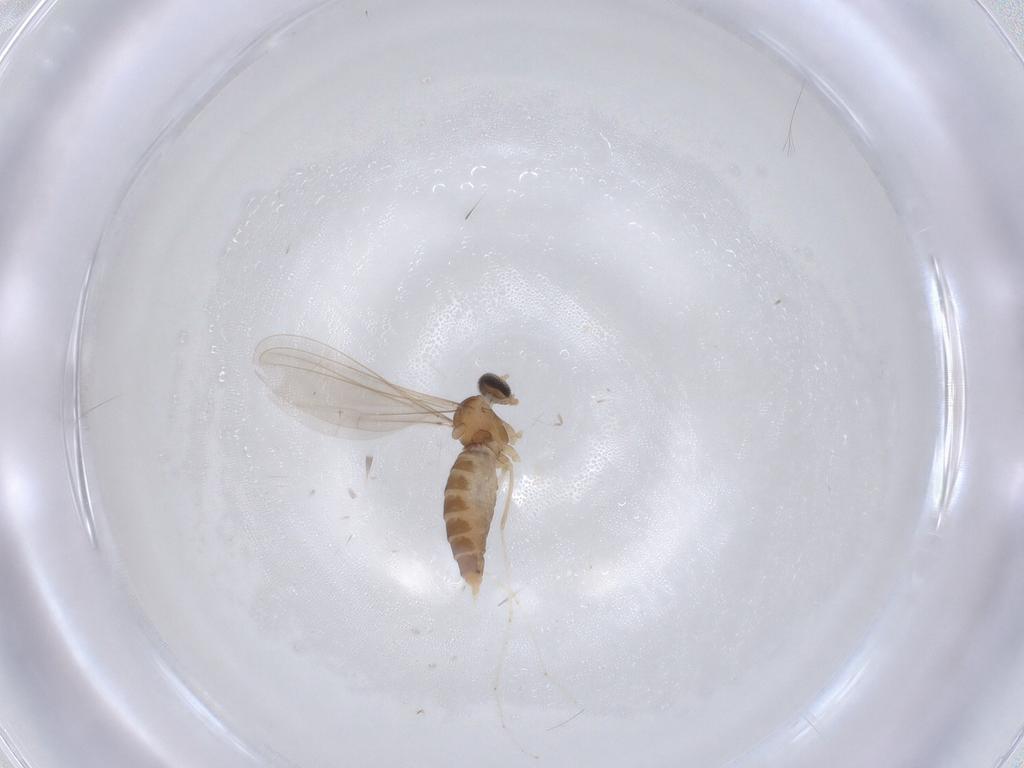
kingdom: Animalia
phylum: Arthropoda
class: Insecta
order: Diptera
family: Cecidomyiidae
